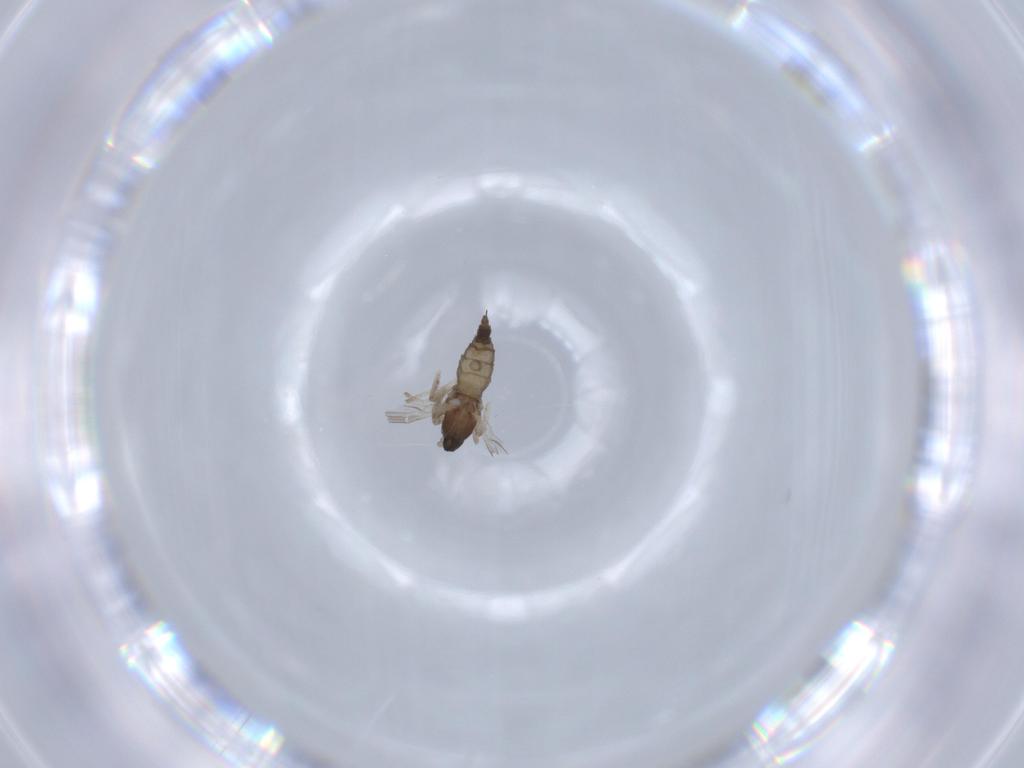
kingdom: Animalia
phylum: Arthropoda
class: Insecta
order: Diptera
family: Cecidomyiidae
